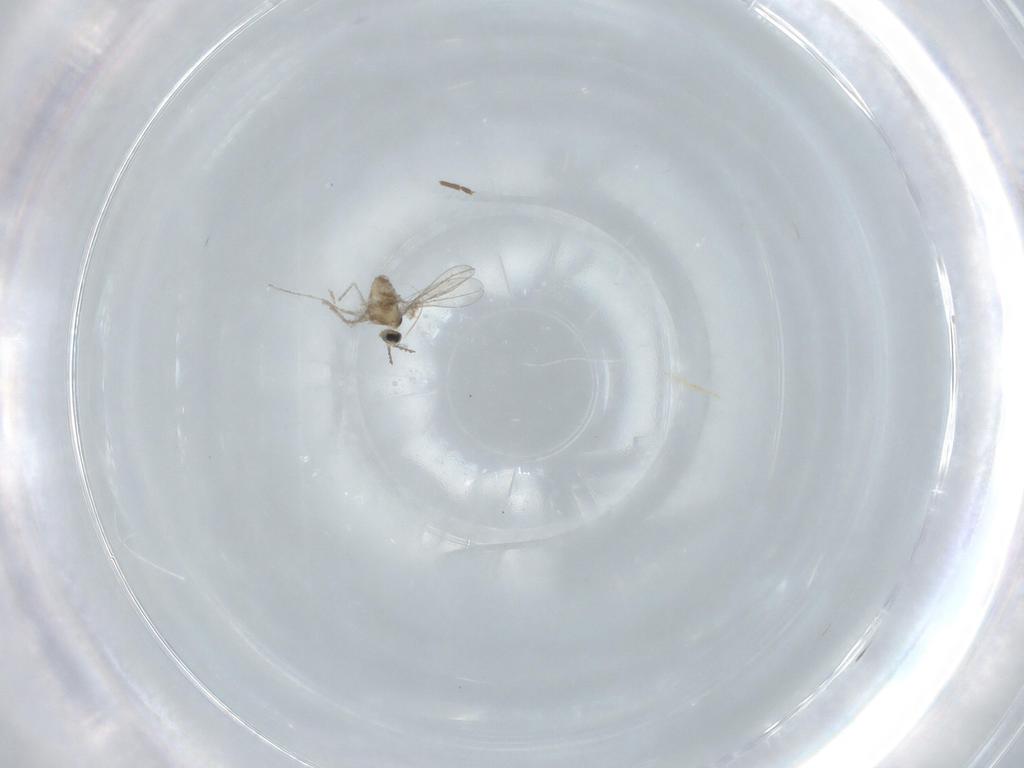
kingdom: Animalia
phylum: Arthropoda
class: Insecta
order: Diptera
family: Cecidomyiidae
